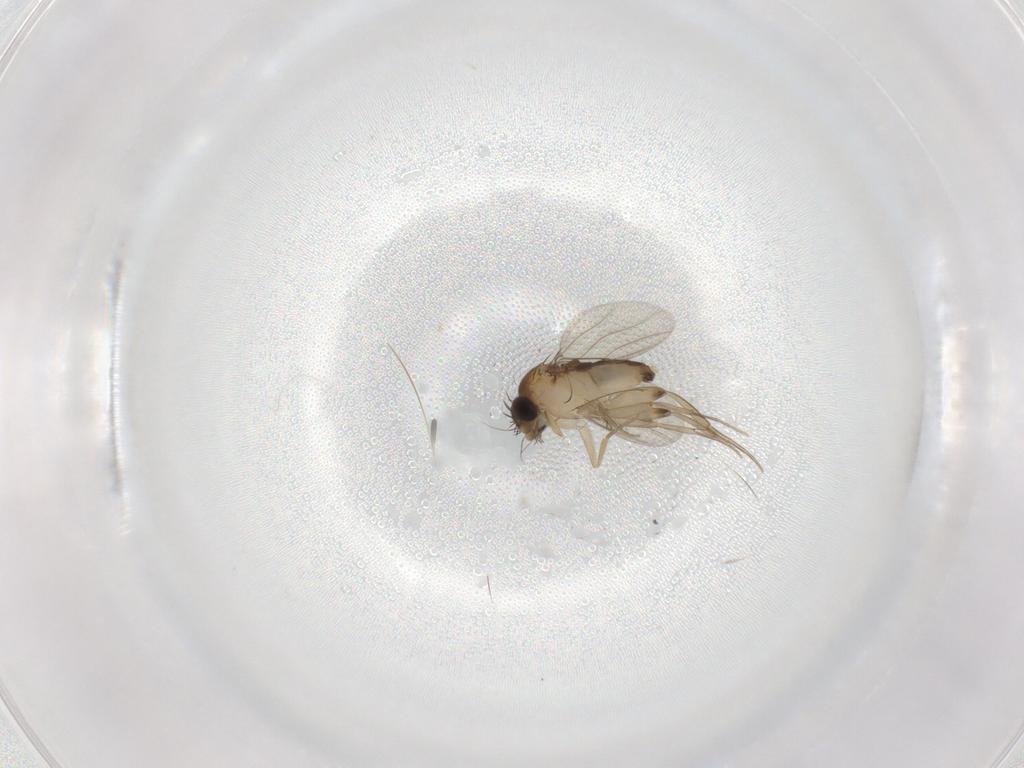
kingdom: Animalia
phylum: Arthropoda
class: Insecta
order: Diptera
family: Phoridae
